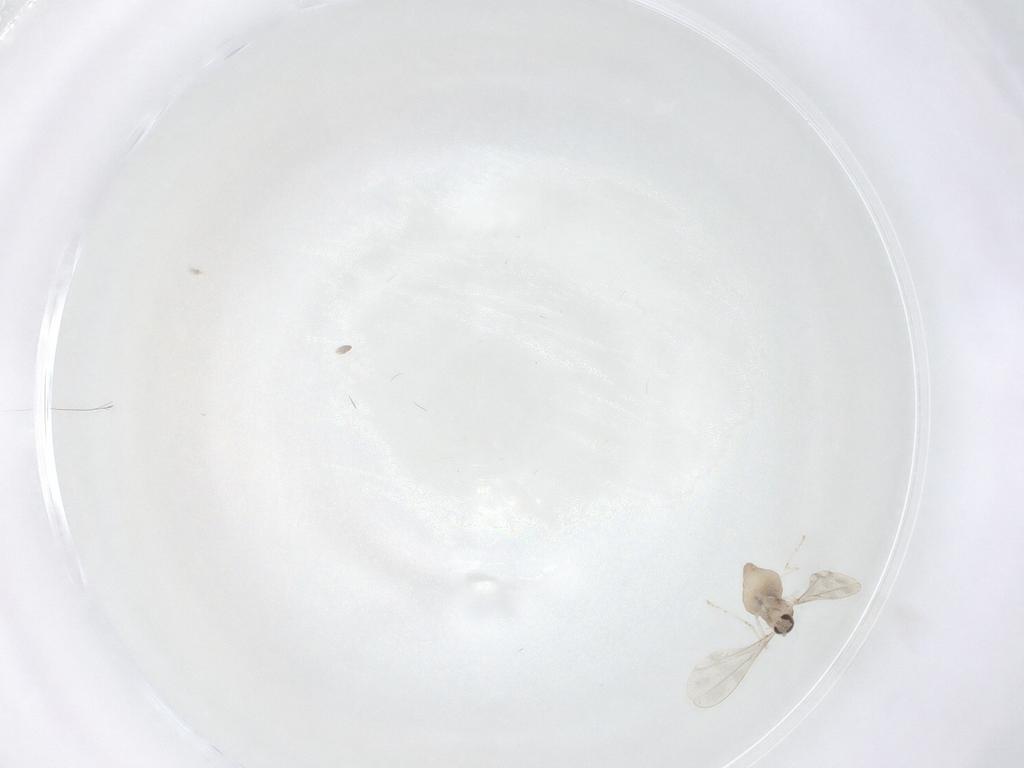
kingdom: Animalia
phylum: Arthropoda
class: Insecta
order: Diptera
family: Cecidomyiidae
